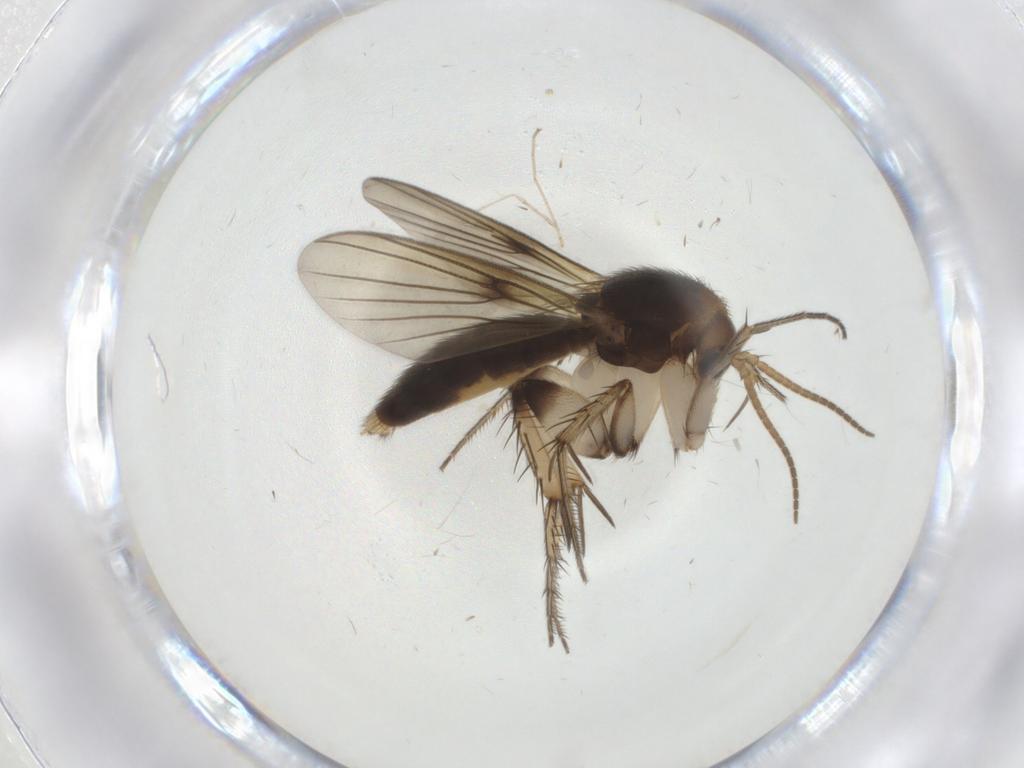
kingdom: Animalia
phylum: Arthropoda
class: Insecta
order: Diptera
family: Mycetophilidae
